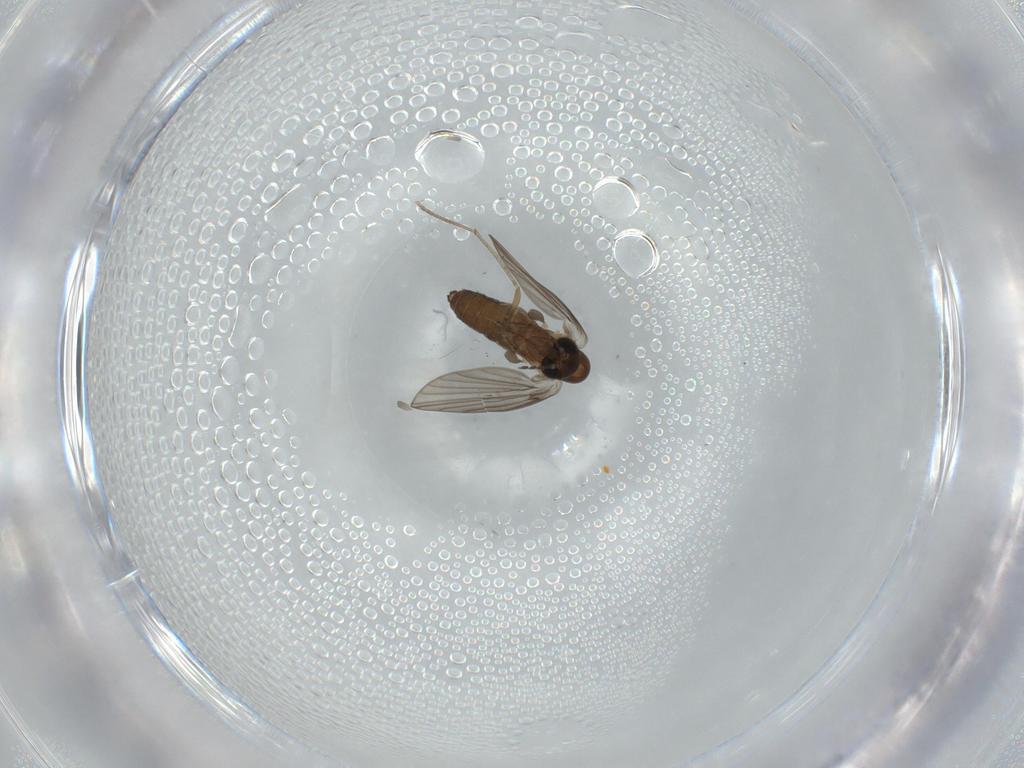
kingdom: Animalia
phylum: Arthropoda
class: Insecta
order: Diptera
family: Psychodidae
